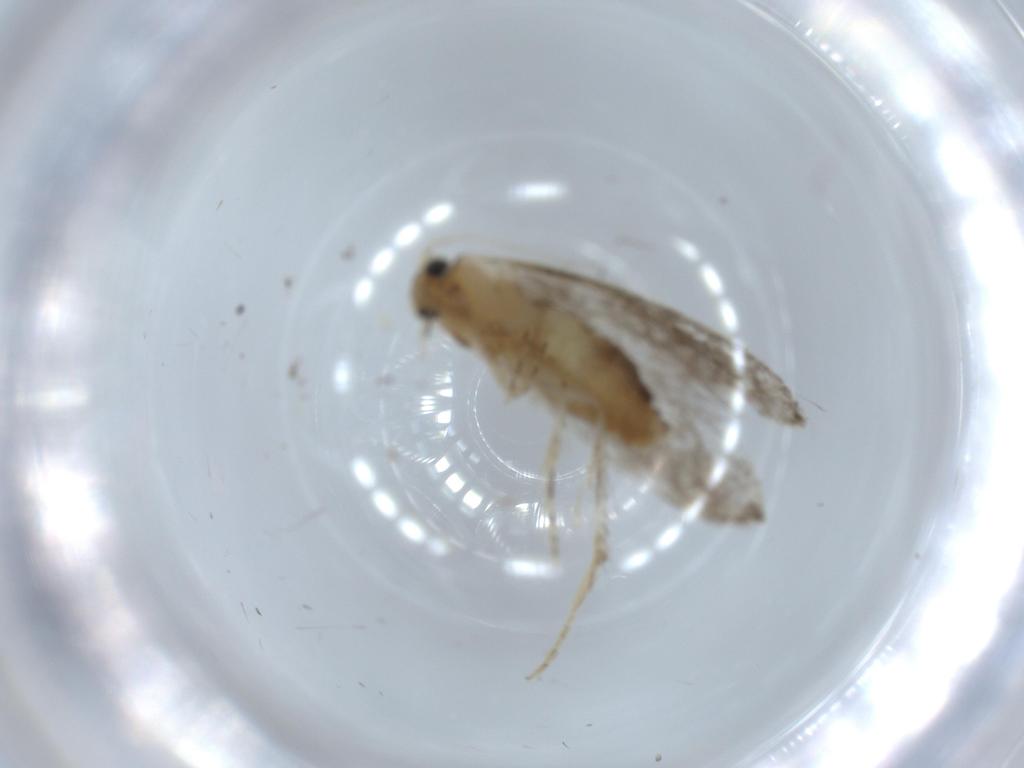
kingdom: Animalia
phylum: Arthropoda
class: Insecta
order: Lepidoptera
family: Tineidae
